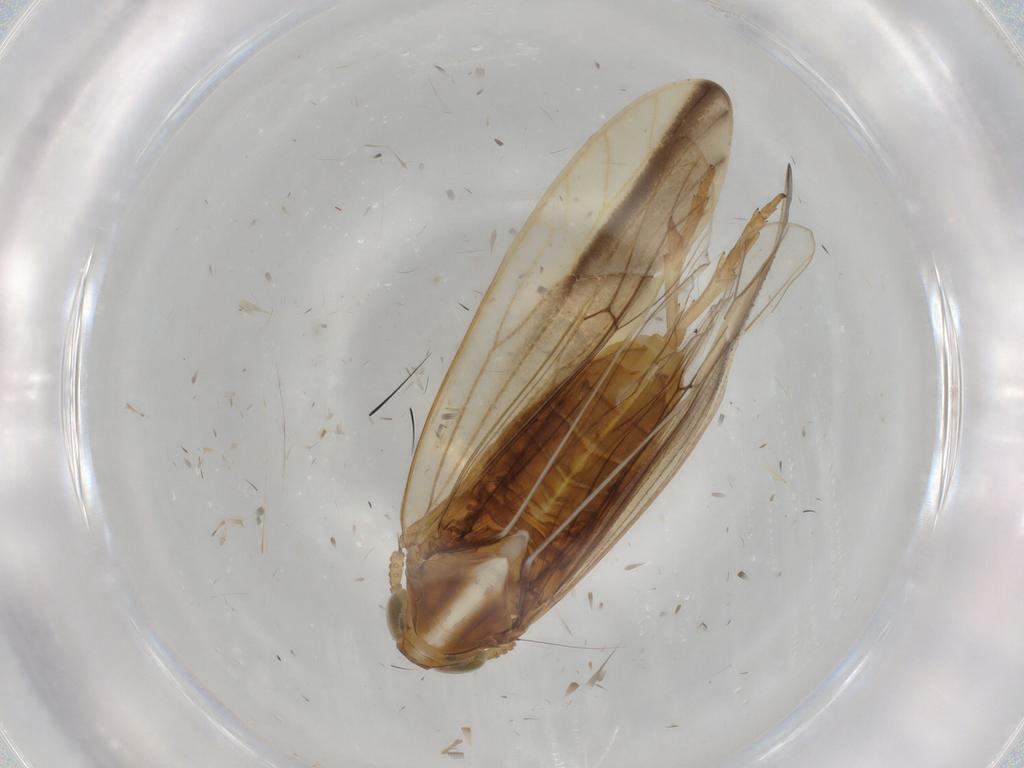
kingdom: Animalia
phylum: Arthropoda
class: Insecta
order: Hemiptera
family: Delphacidae
